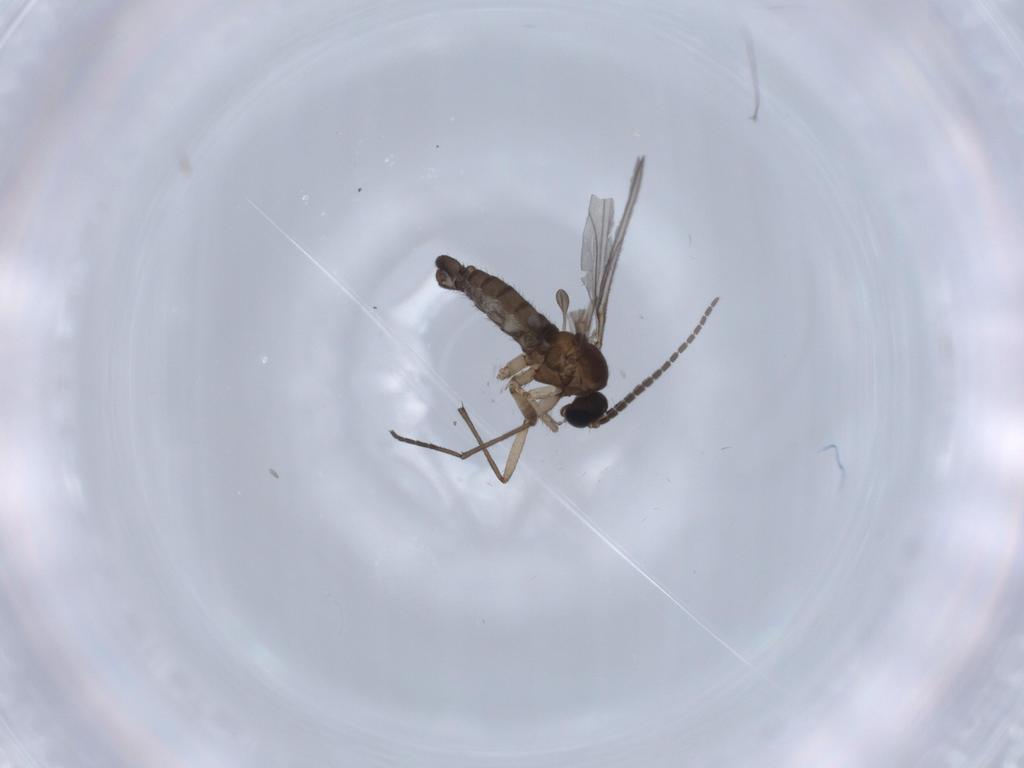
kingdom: Animalia
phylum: Arthropoda
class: Insecta
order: Diptera
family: Sciaridae
